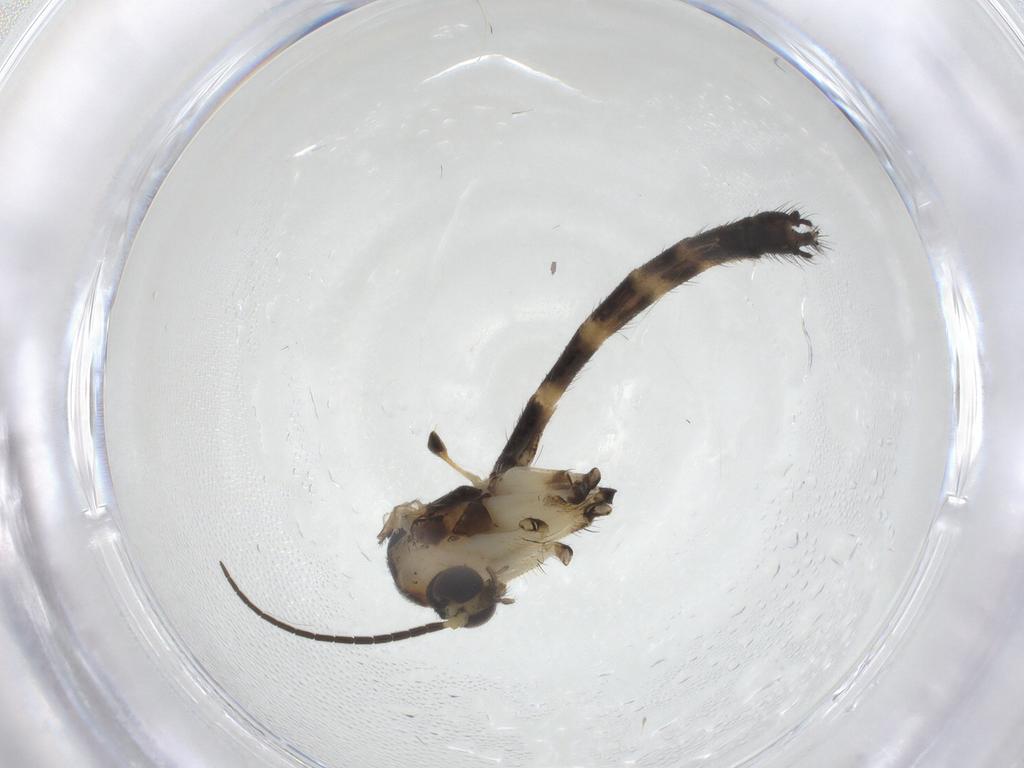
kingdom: Animalia
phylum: Arthropoda
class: Insecta
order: Diptera
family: Mycetophilidae
